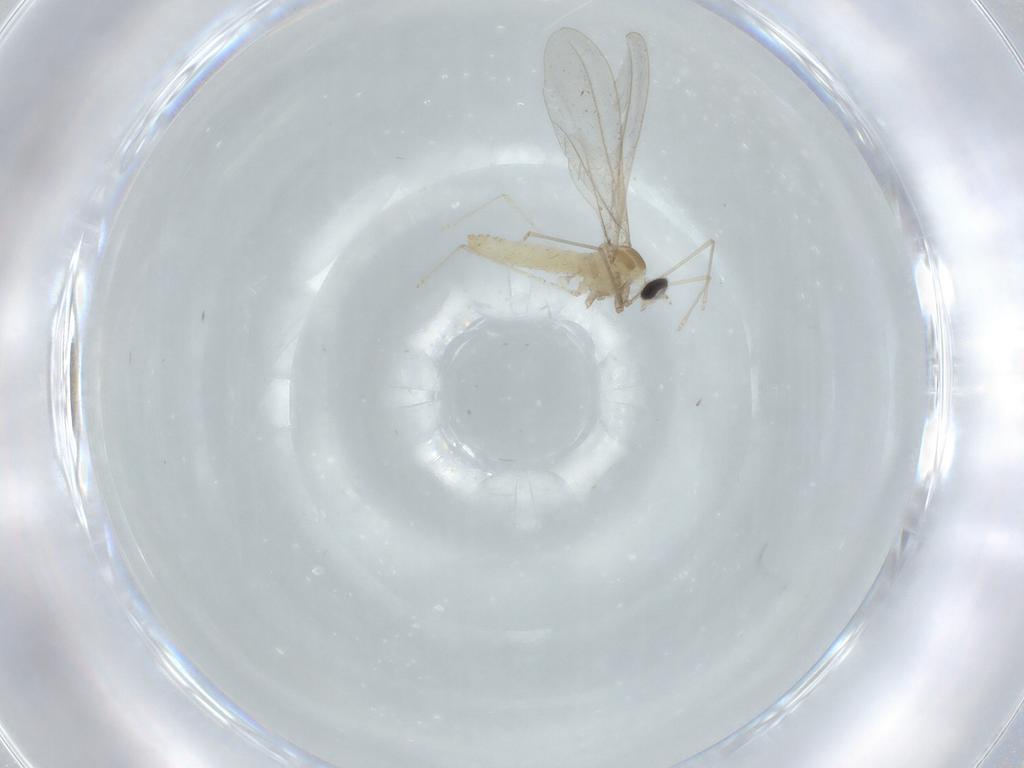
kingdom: Animalia
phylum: Arthropoda
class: Insecta
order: Diptera
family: Cecidomyiidae
